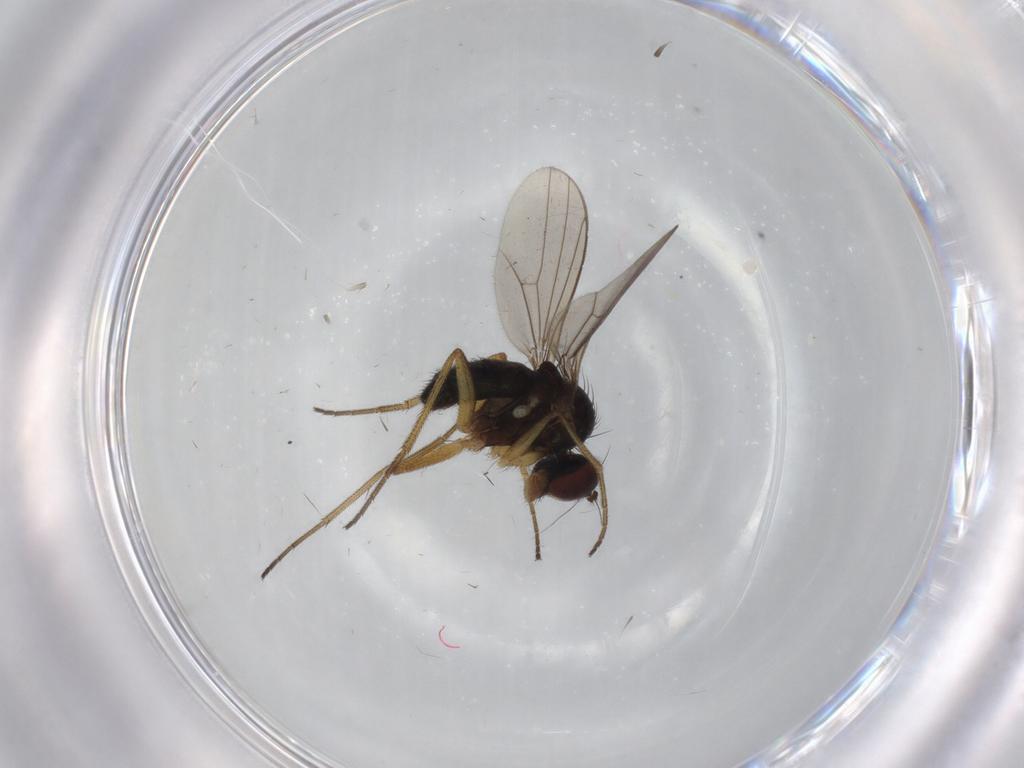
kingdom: Animalia
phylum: Arthropoda
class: Insecta
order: Diptera
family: Dolichopodidae
